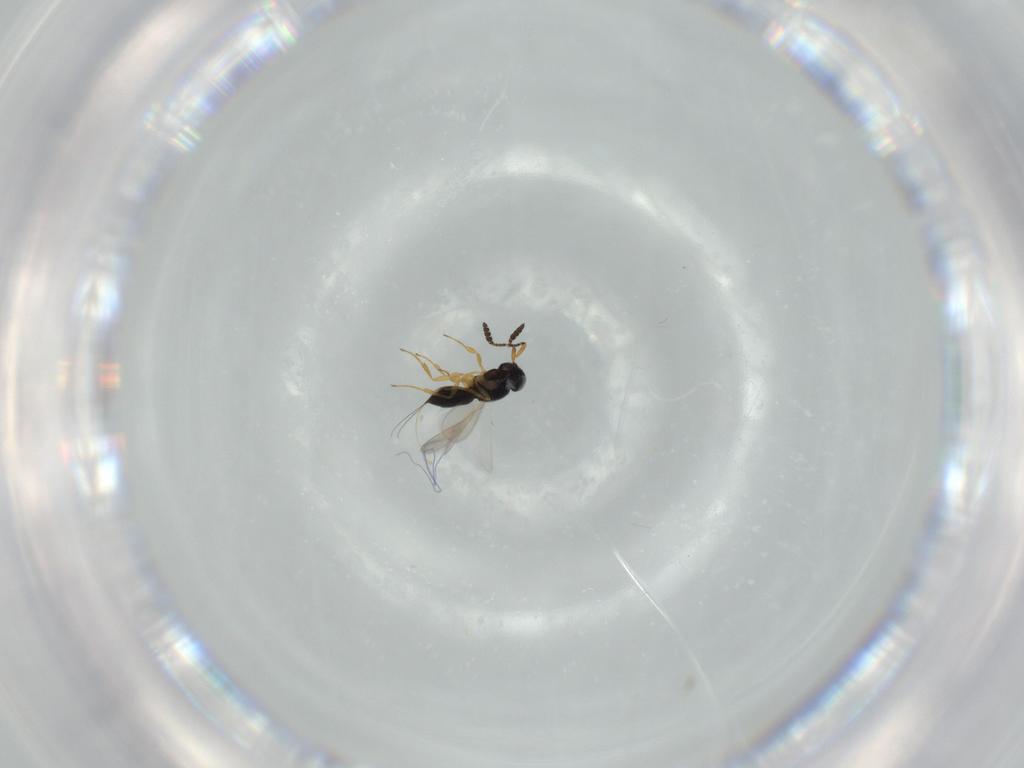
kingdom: Animalia
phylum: Arthropoda
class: Insecta
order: Hymenoptera
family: Scelionidae
